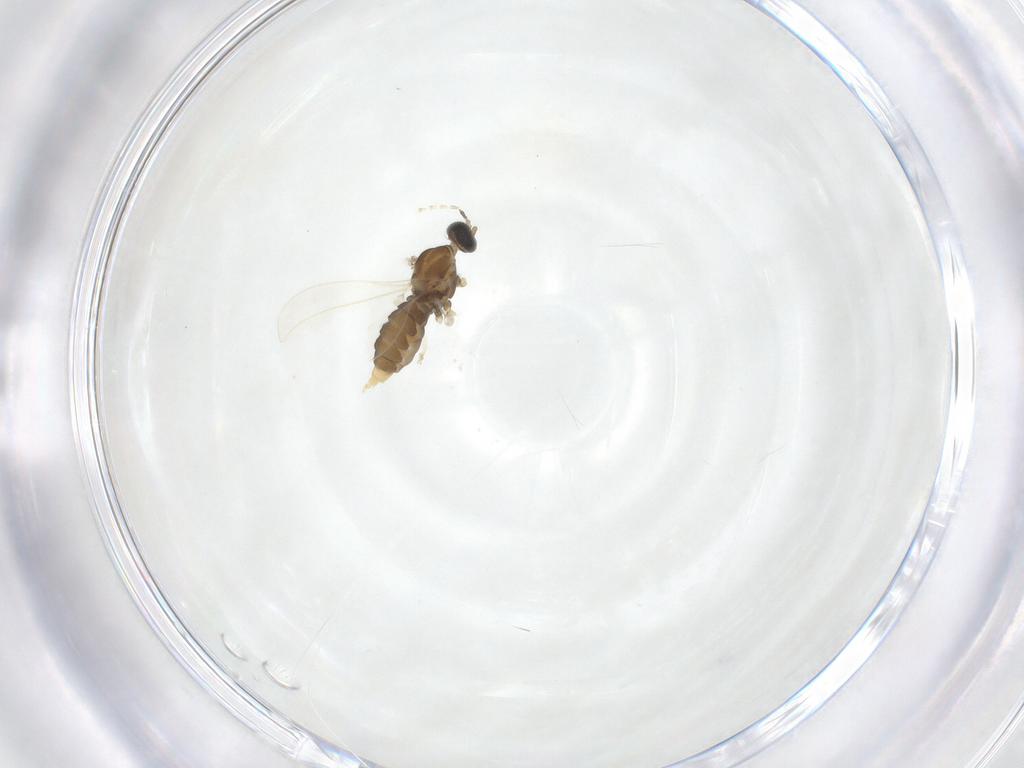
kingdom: Animalia
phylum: Arthropoda
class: Insecta
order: Diptera
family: Cecidomyiidae
